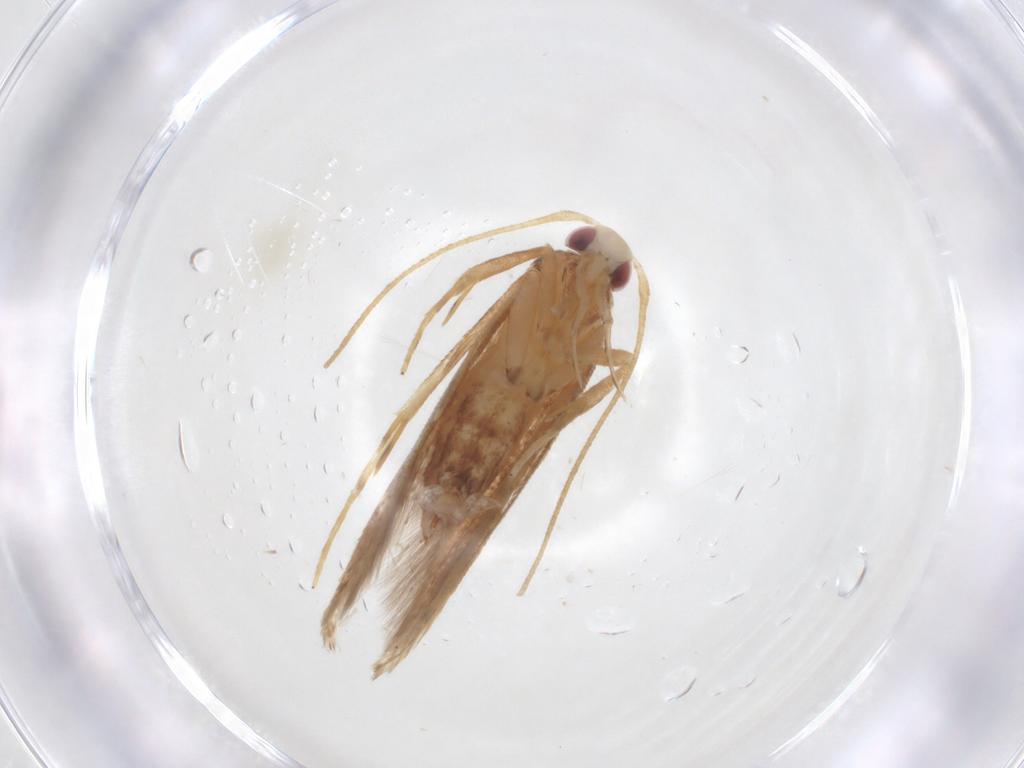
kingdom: Animalia
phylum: Arthropoda
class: Insecta
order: Lepidoptera
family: Cosmopterigidae
